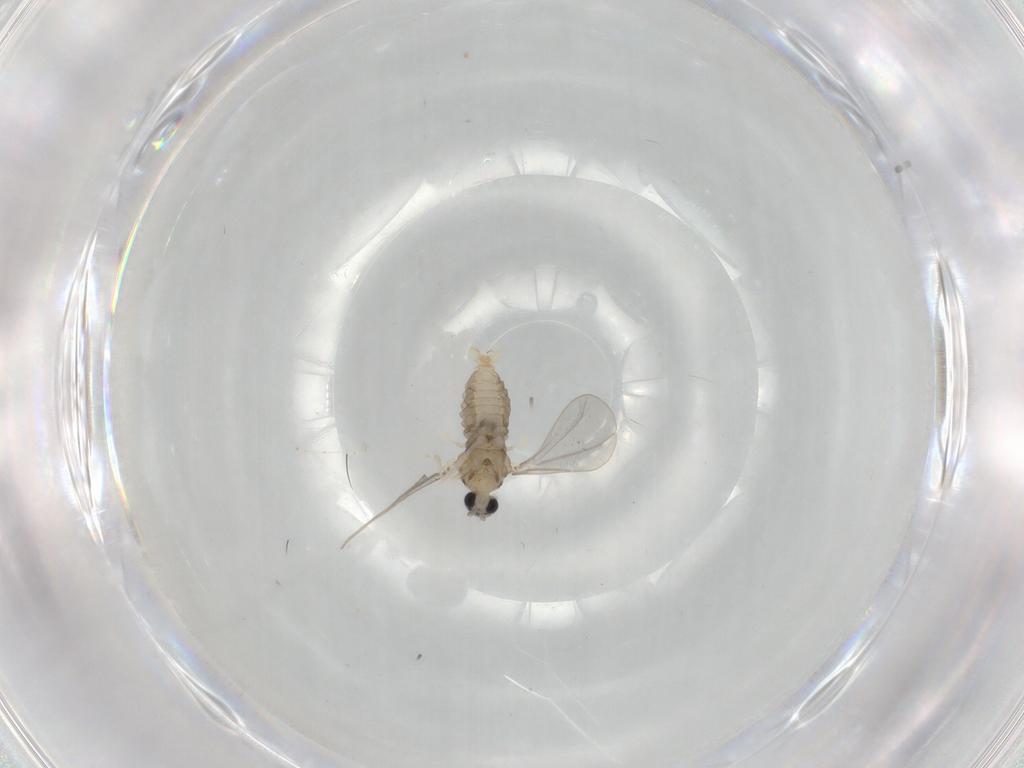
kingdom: Animalia
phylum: Arthropoda
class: Insecta
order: Diptera
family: Cecidomyiidae
